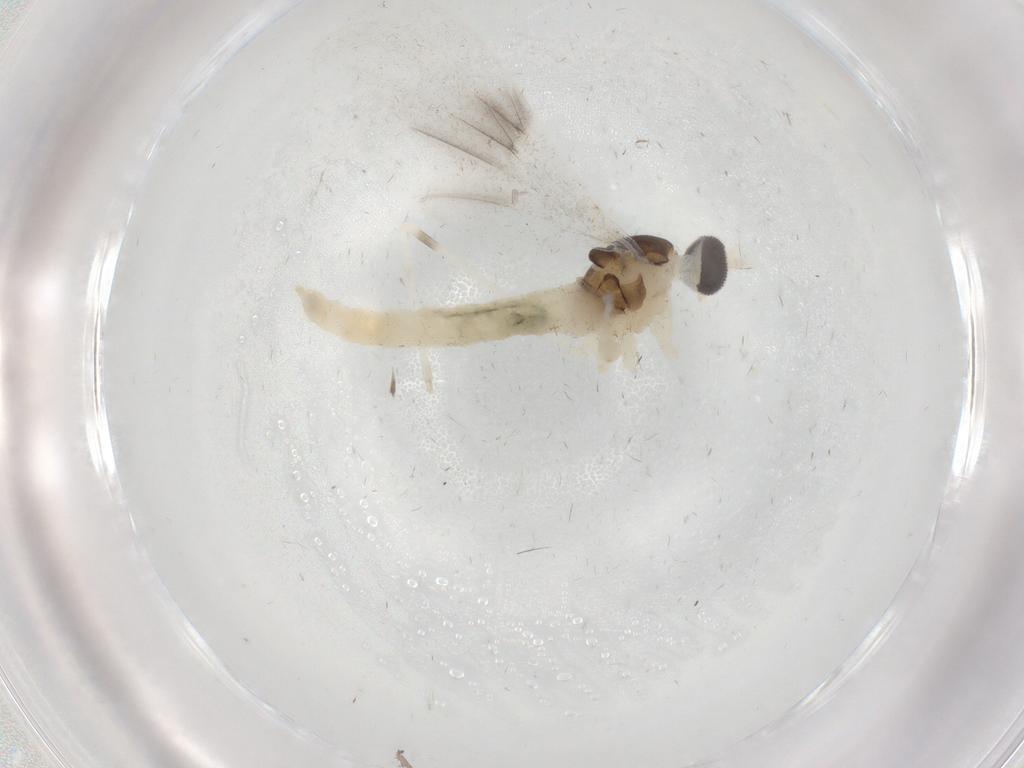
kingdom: Animalia
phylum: Arthropoda
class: Insecta
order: Diptera
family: Cecidomyiidae
